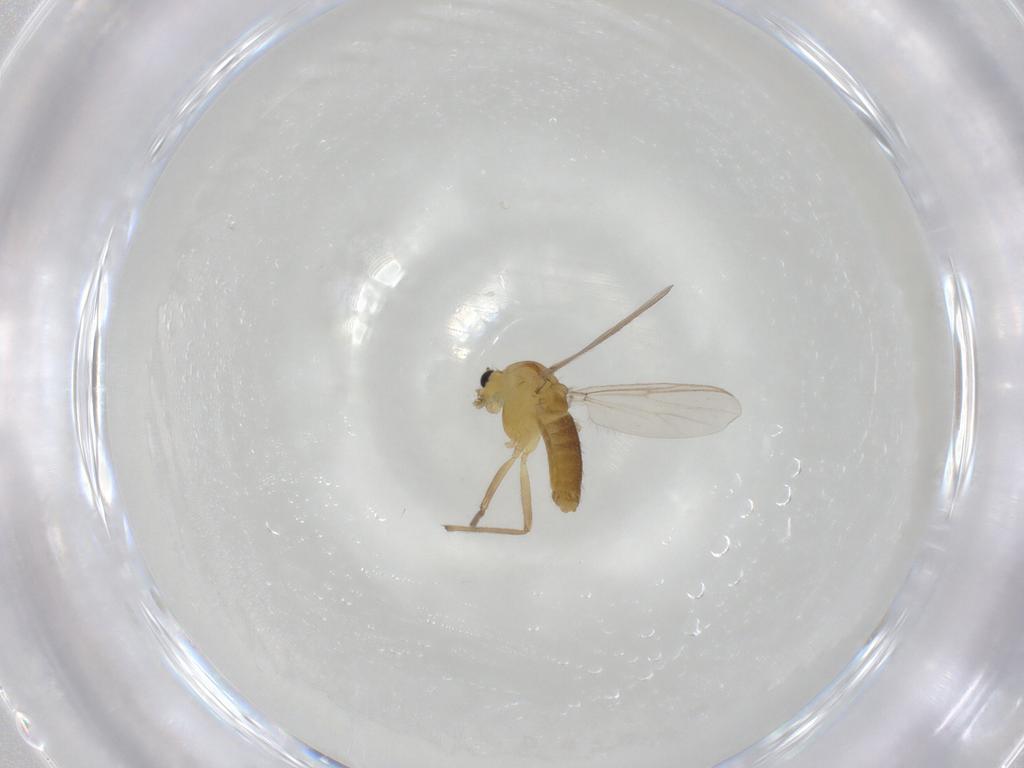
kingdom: Animalia
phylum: Arthropoda
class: Insecta
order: Diptera
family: Chironomidae
